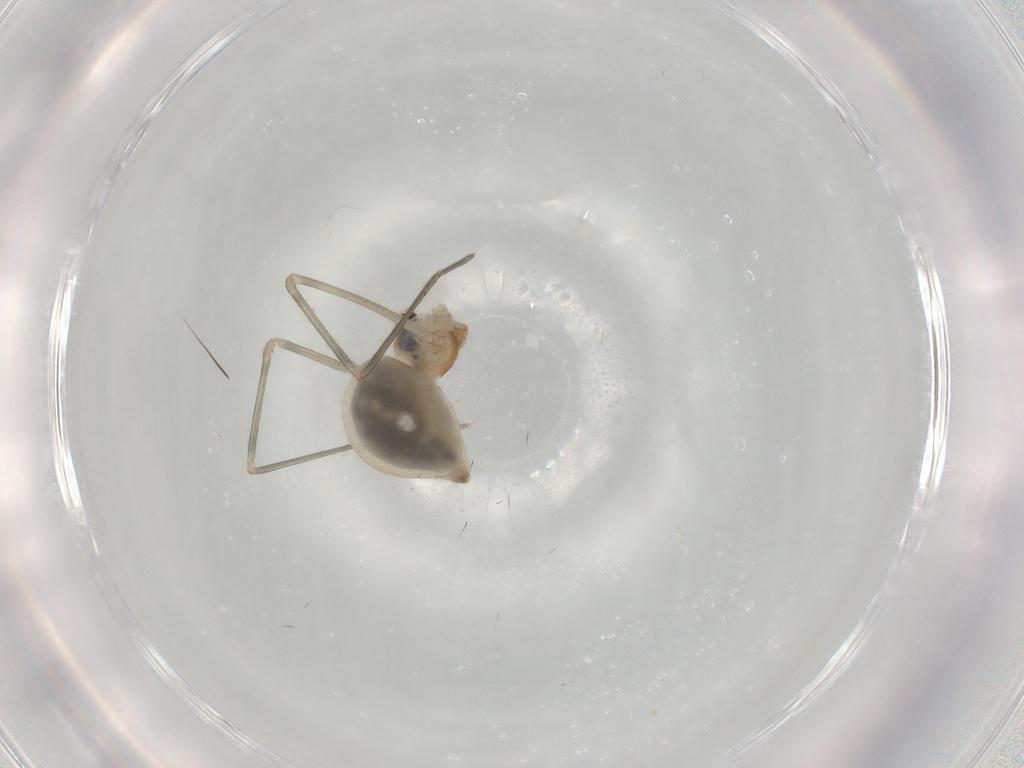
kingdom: Animalia
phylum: Arthropoda
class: Arachnida
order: Araneae
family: Pholcidae
